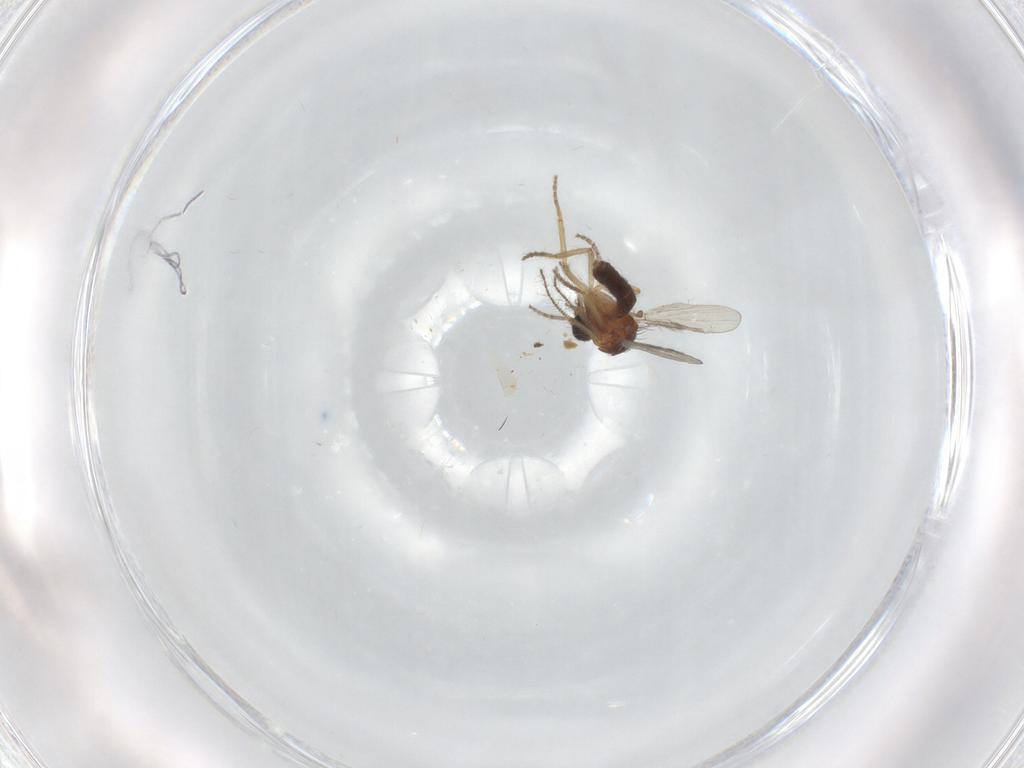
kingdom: Animalia
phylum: Arthropoda
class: Insecta
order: Diptera
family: Ceratopogonidae
